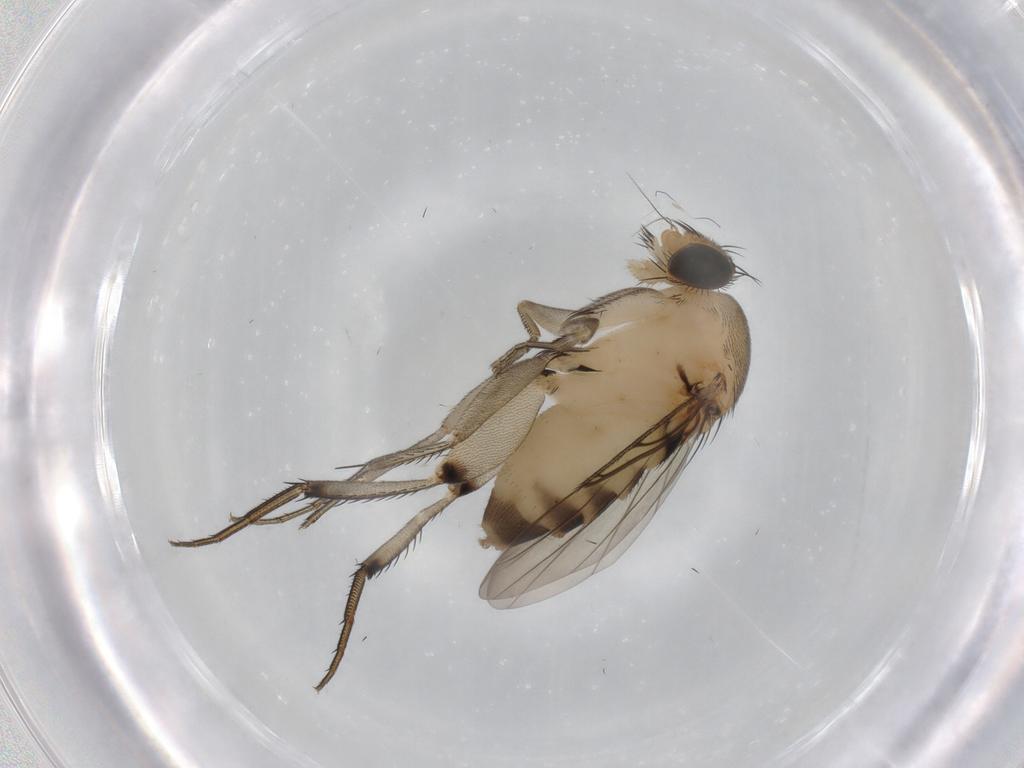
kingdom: Animalia
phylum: Arthropoda
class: Insecta
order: Diptera
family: Phoridae
